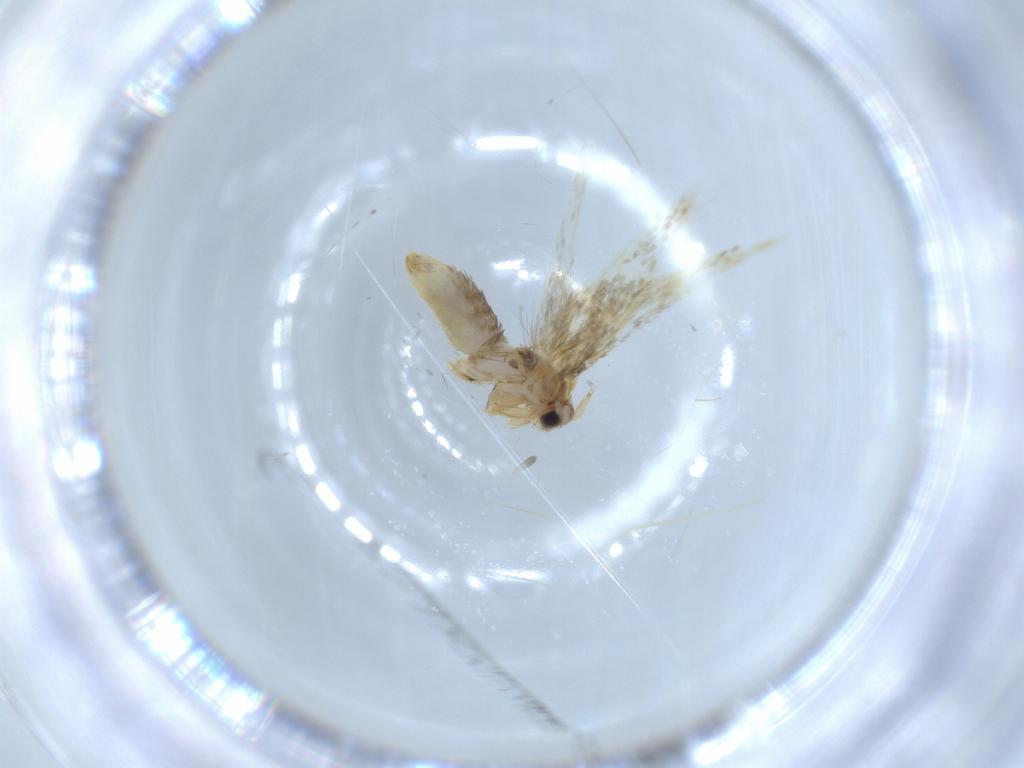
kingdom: Animalia
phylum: Arthropoda
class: Insecta
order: Lepidoptera
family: Nepticulidae
